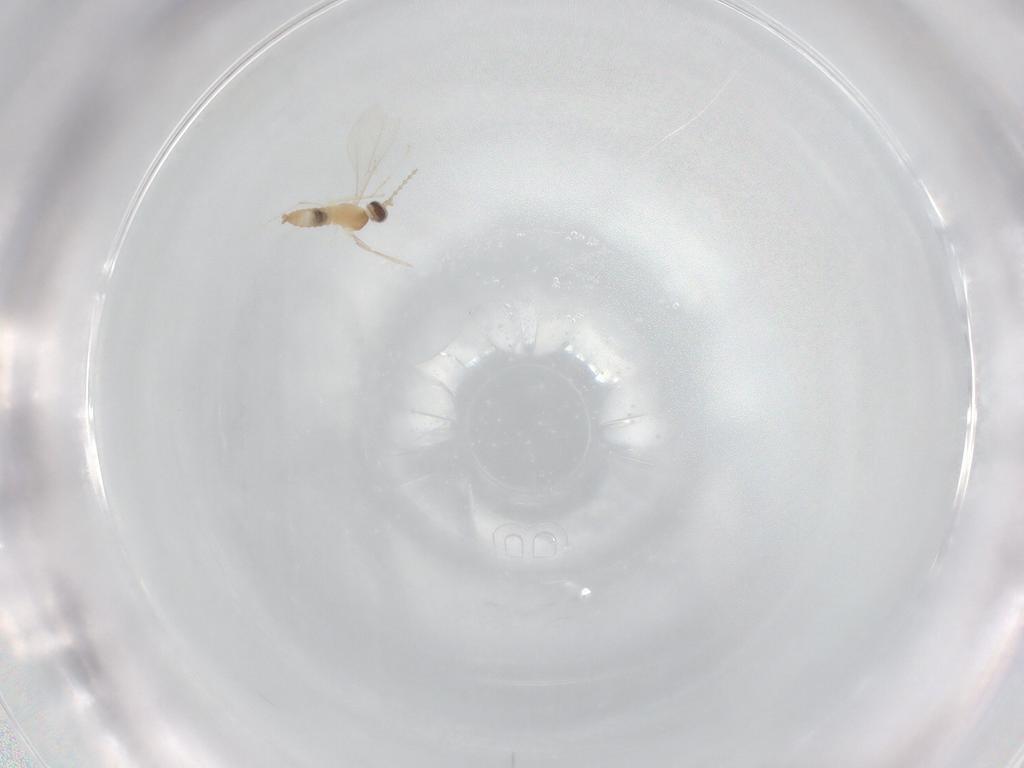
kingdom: Animalia
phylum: Arthropoda
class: Insecta
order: Diptera
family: Cecidomyiidae
